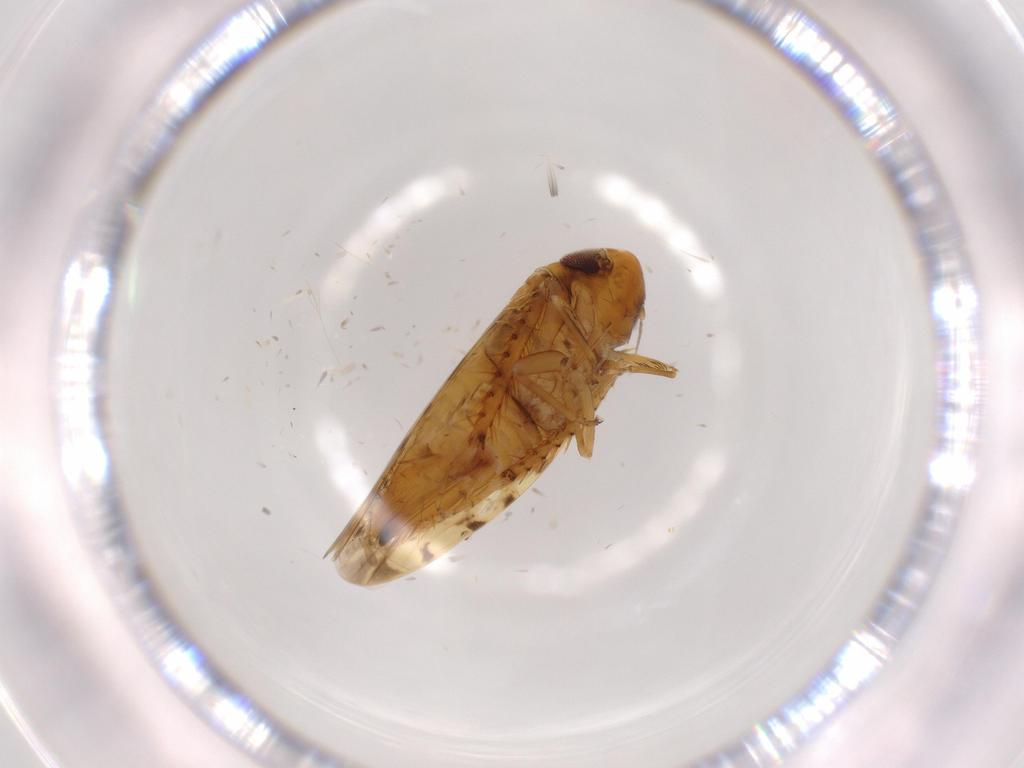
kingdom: Animalia
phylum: Arthropoda
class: Insecta
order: Hemiptera
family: Cicadellidae
